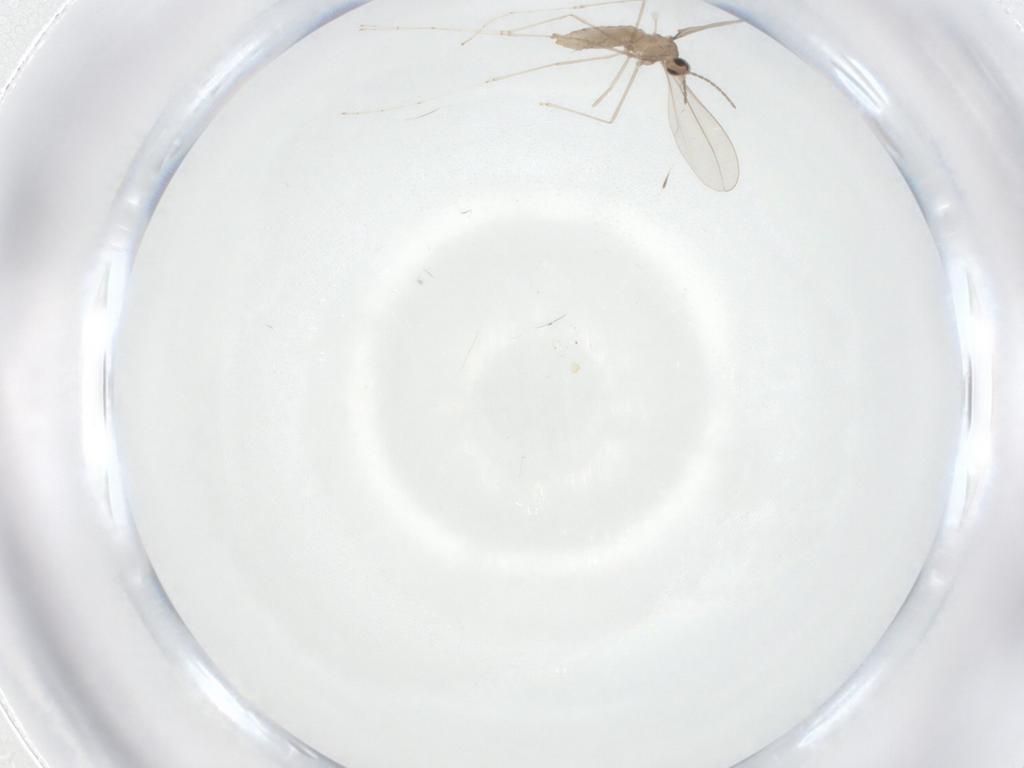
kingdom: Animalia
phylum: Arthropoda
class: Insecta
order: Diptera
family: Cecidomyiidae
